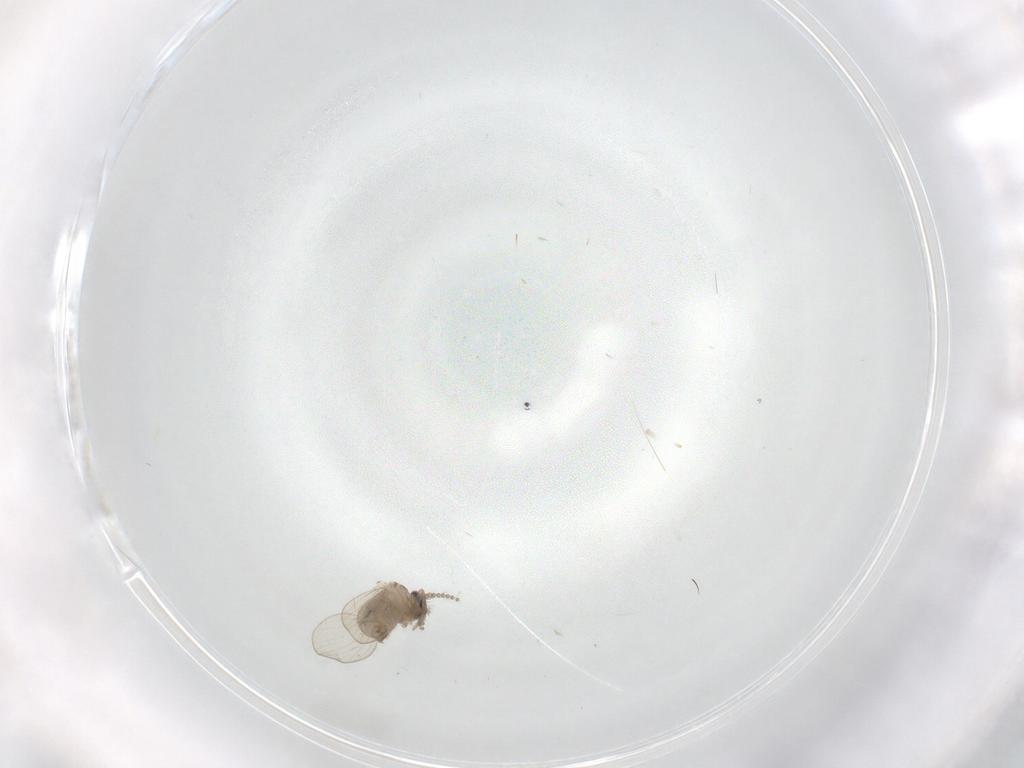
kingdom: Animalia
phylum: Arthropoda
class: Insecta
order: Diptera
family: Psychodidae
